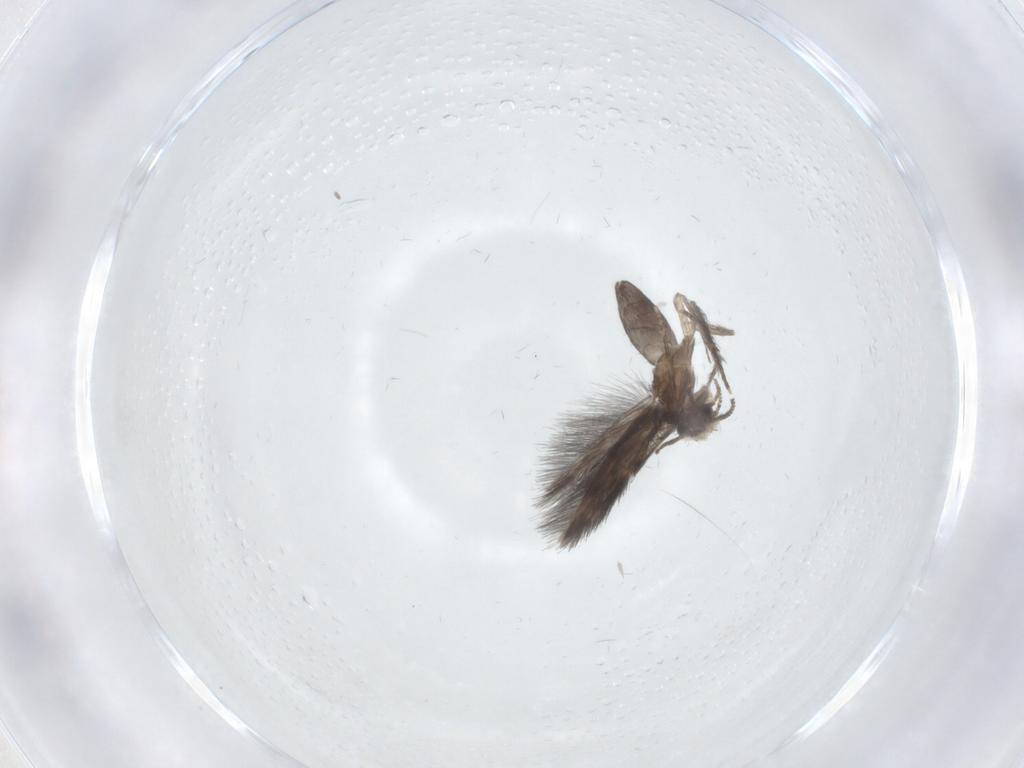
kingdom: Animalia
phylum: Arthropoda
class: Insecta
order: Trichoptera
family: Hydroptilidae
